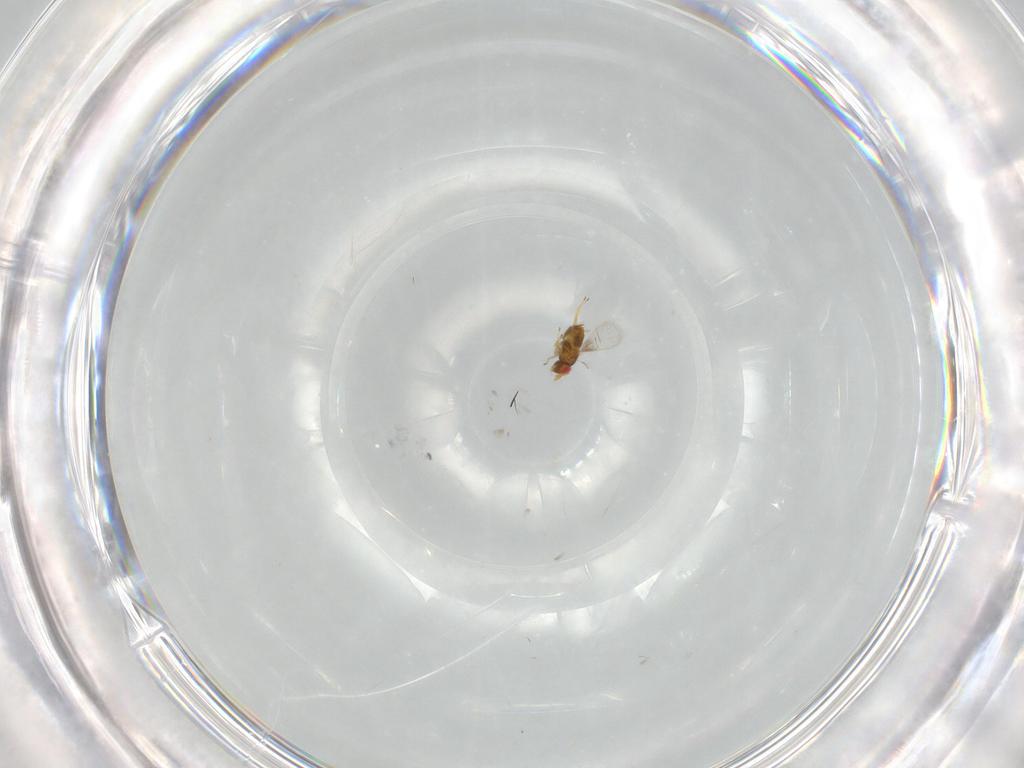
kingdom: Animalia
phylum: Arthropoda
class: Insecta
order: Hymenoptera
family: Trichogrammatidae
